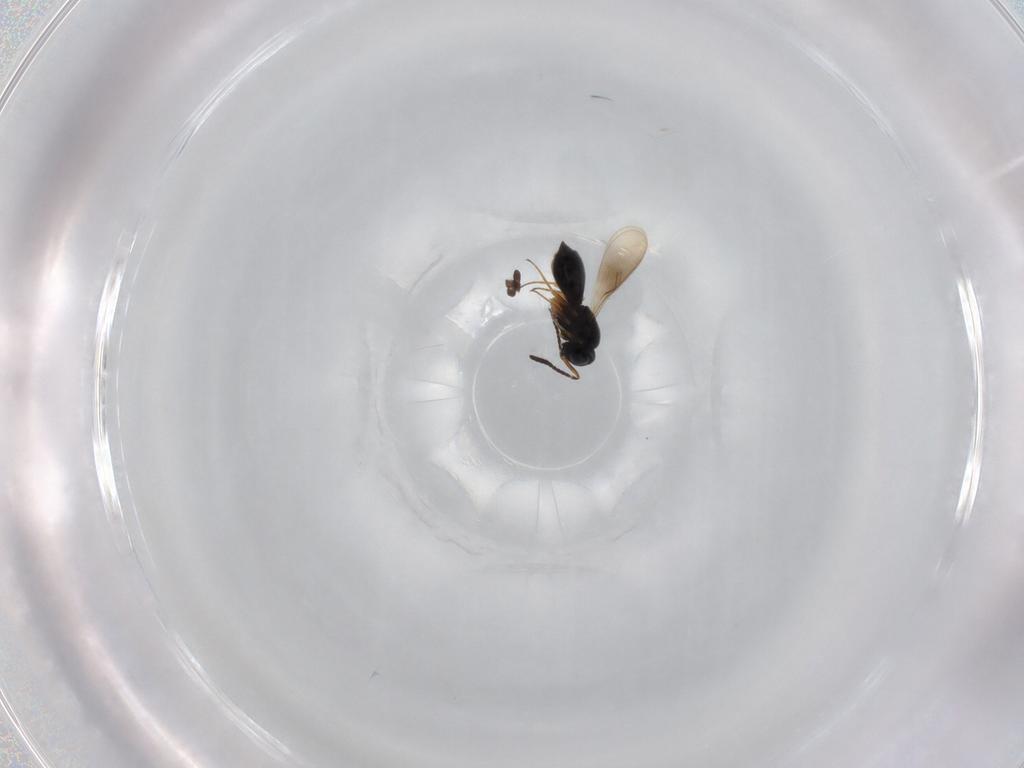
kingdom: Animalia
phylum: Arthropoda
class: Insecta
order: Hymenoptera
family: Scelionidae
